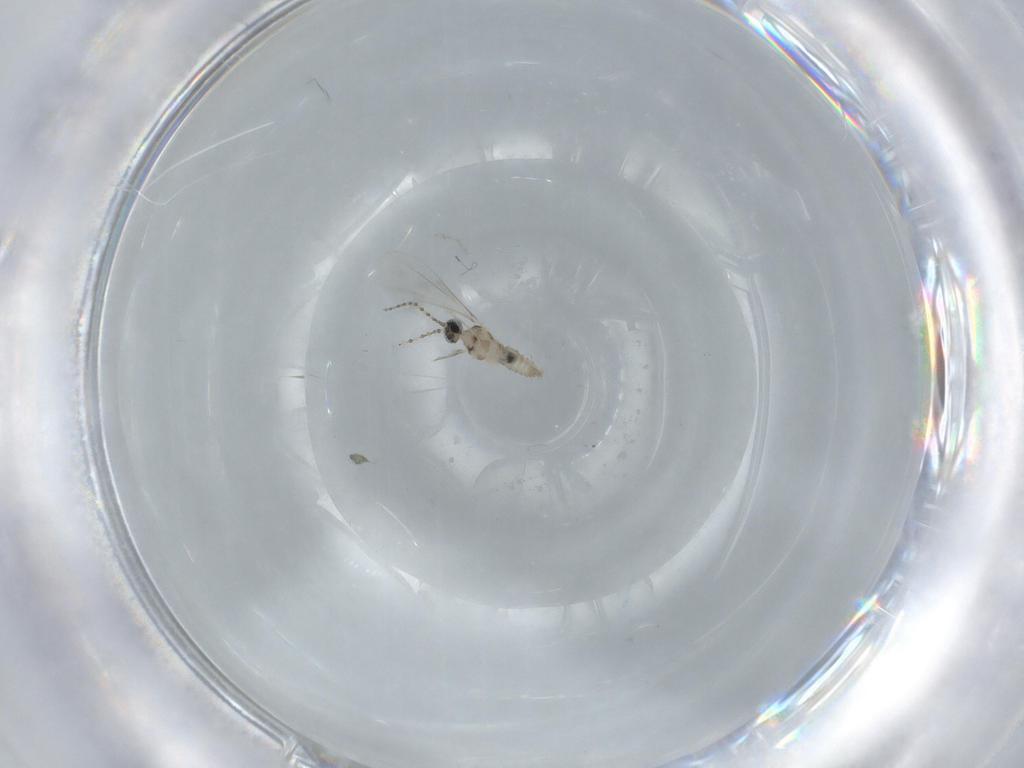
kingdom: Animalia
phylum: Arthropoda
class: Insecta
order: Diptera
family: Cecidomyiidae
